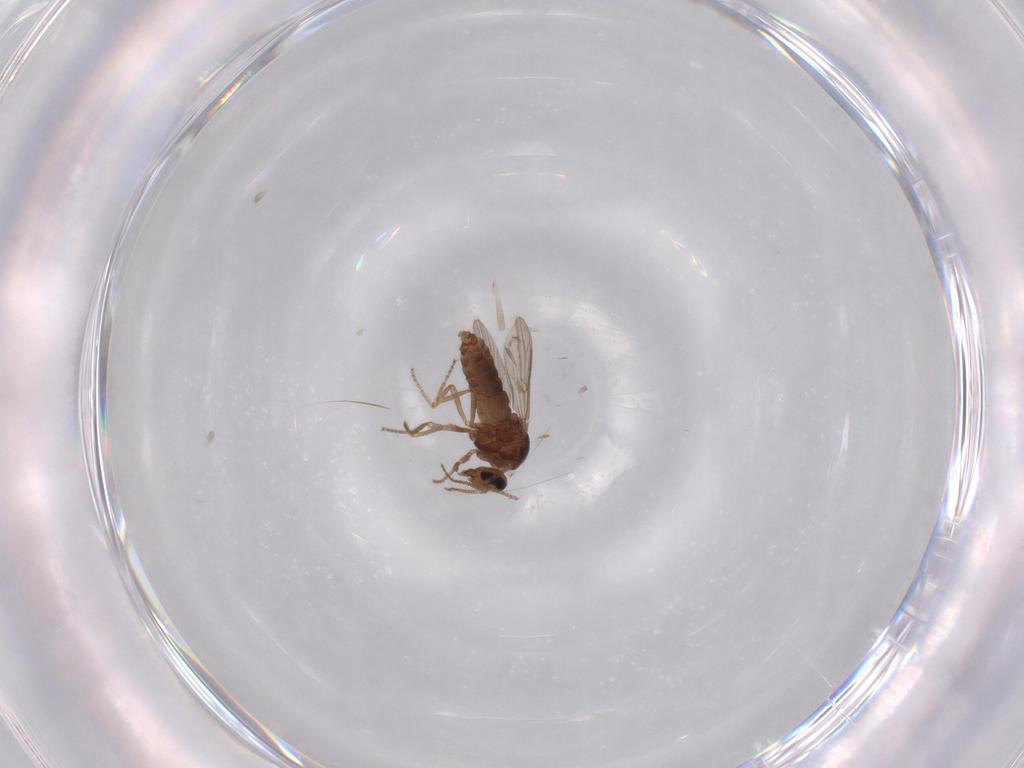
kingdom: Animalia
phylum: Arthropoda
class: Insecta
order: Diptera
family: Ceratopogonidae
